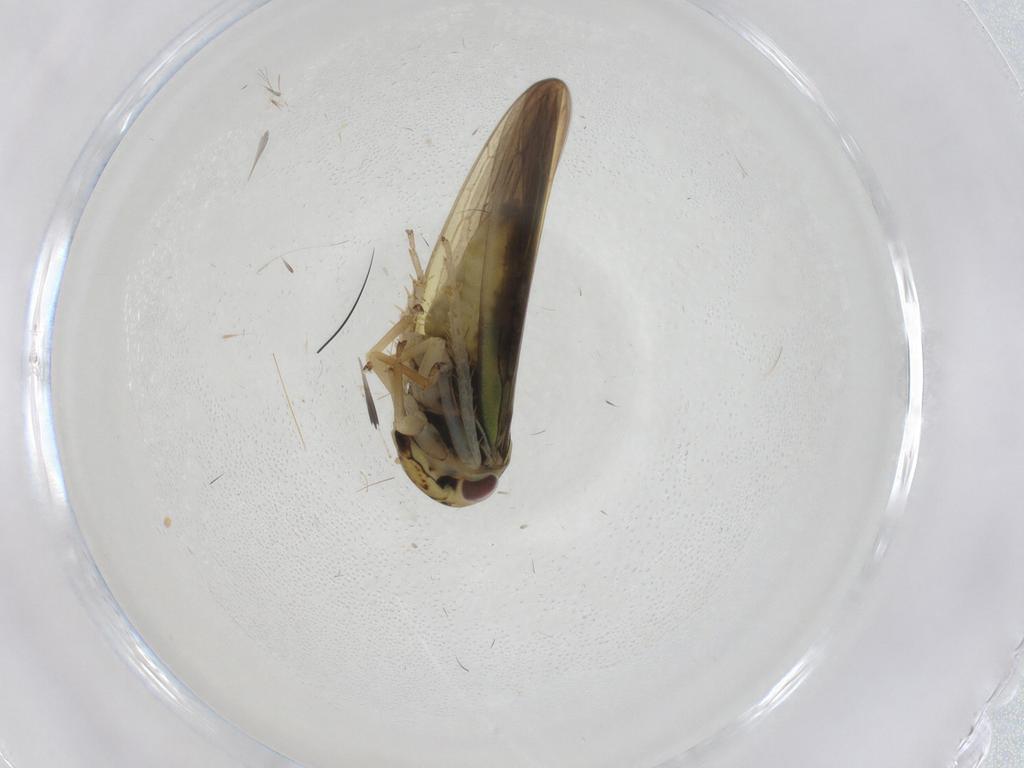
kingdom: Animalia
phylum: Arthropoda
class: Insecta
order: Hemiptera
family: Cicadellidae
